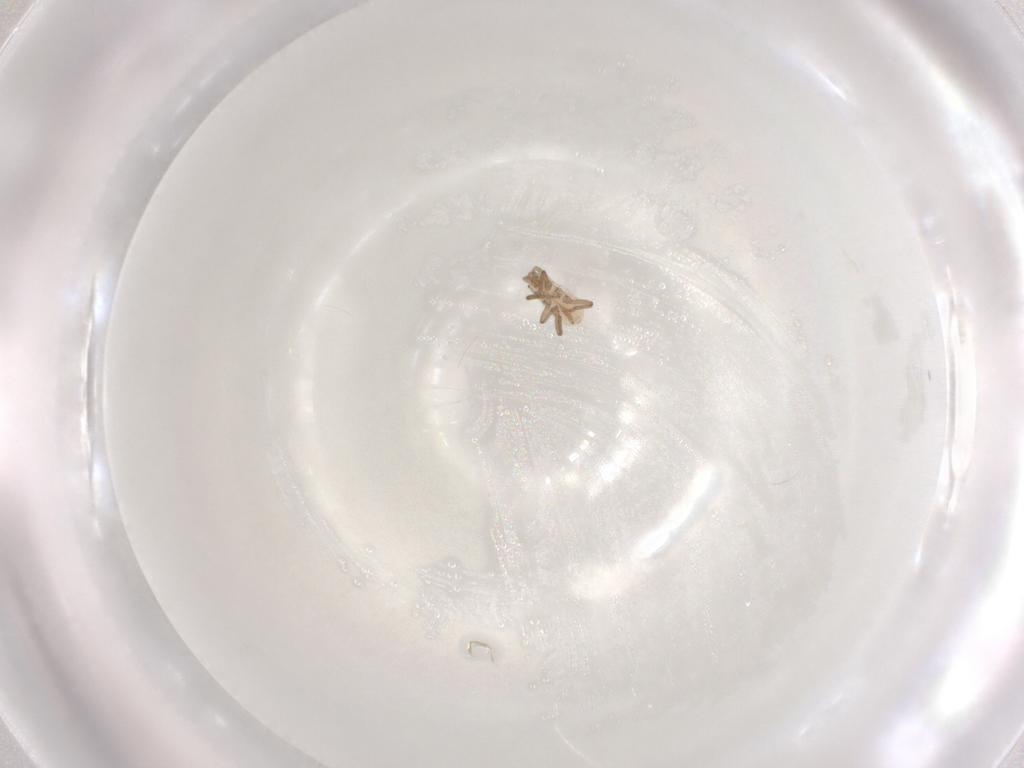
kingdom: Animalia
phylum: Arthropoda
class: Insecta
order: Hemiptera
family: Aphididae
